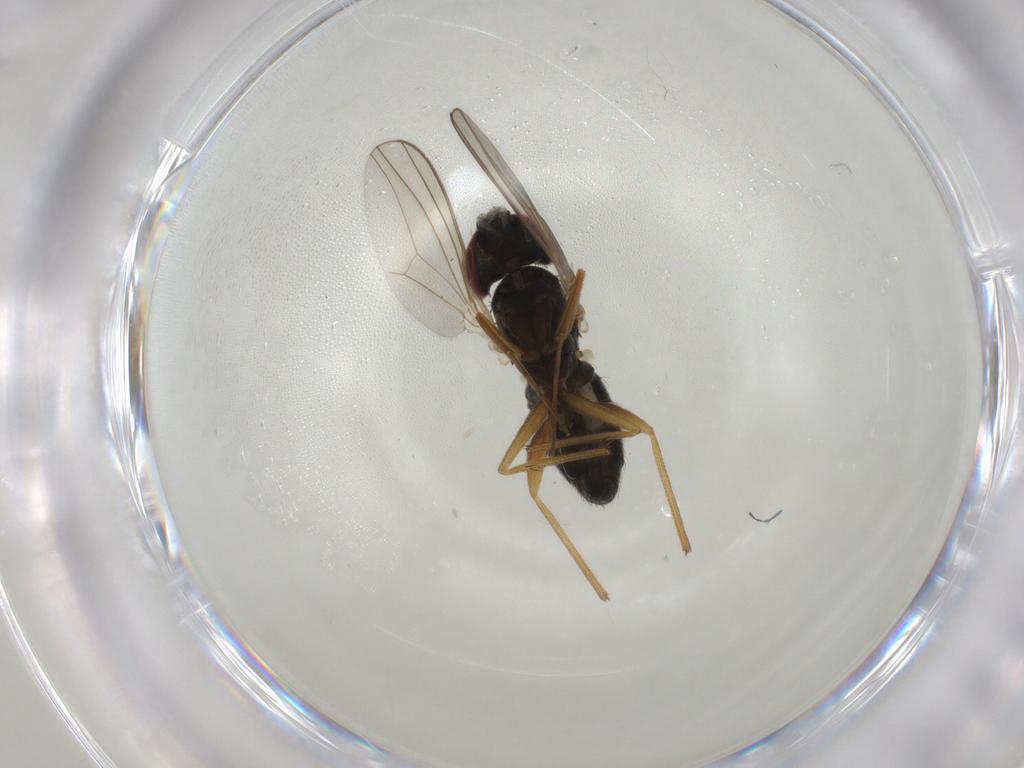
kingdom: Animalia
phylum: Arthropoda
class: Insecta
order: Diptera
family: Dolichopodidae
